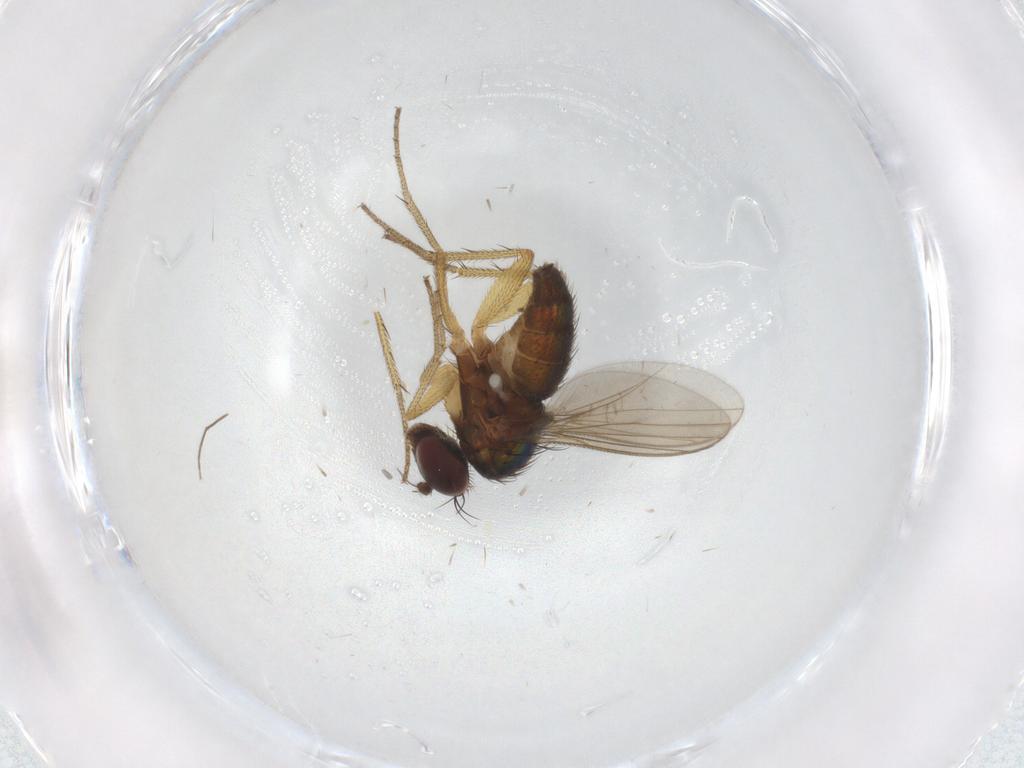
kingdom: Animalia
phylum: Arthropoda
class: Insecta
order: Diptera
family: Dolichopodidae
